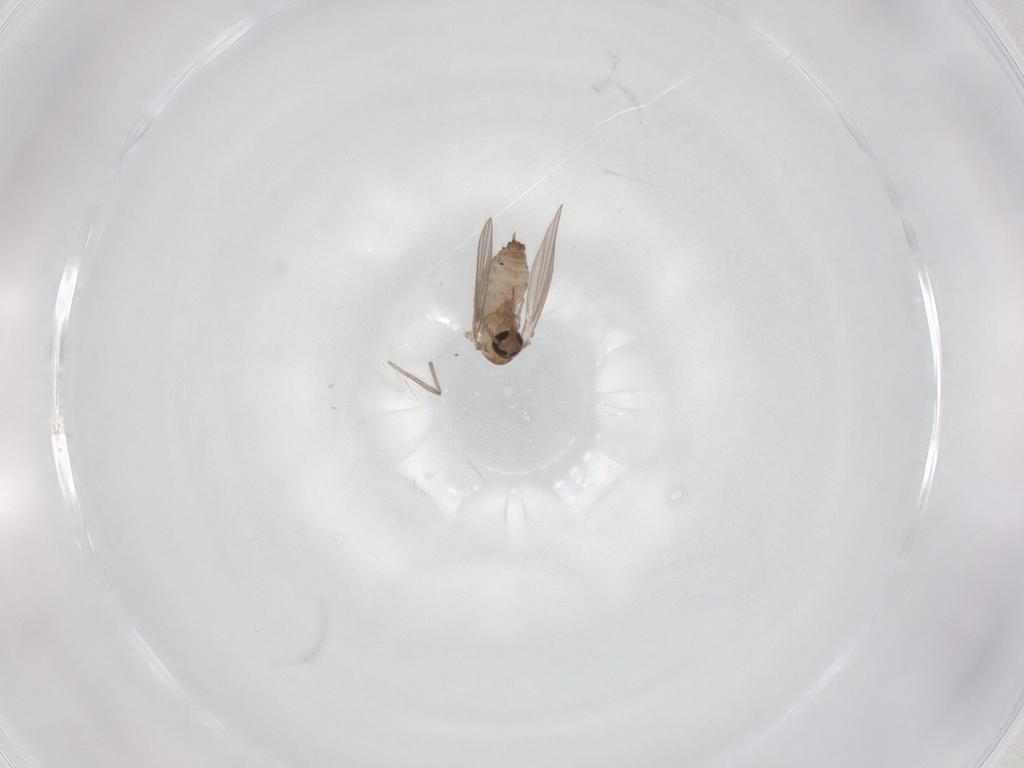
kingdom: Animalia
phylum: Arthropoda
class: Insecta
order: Diptera
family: Psychodidae
